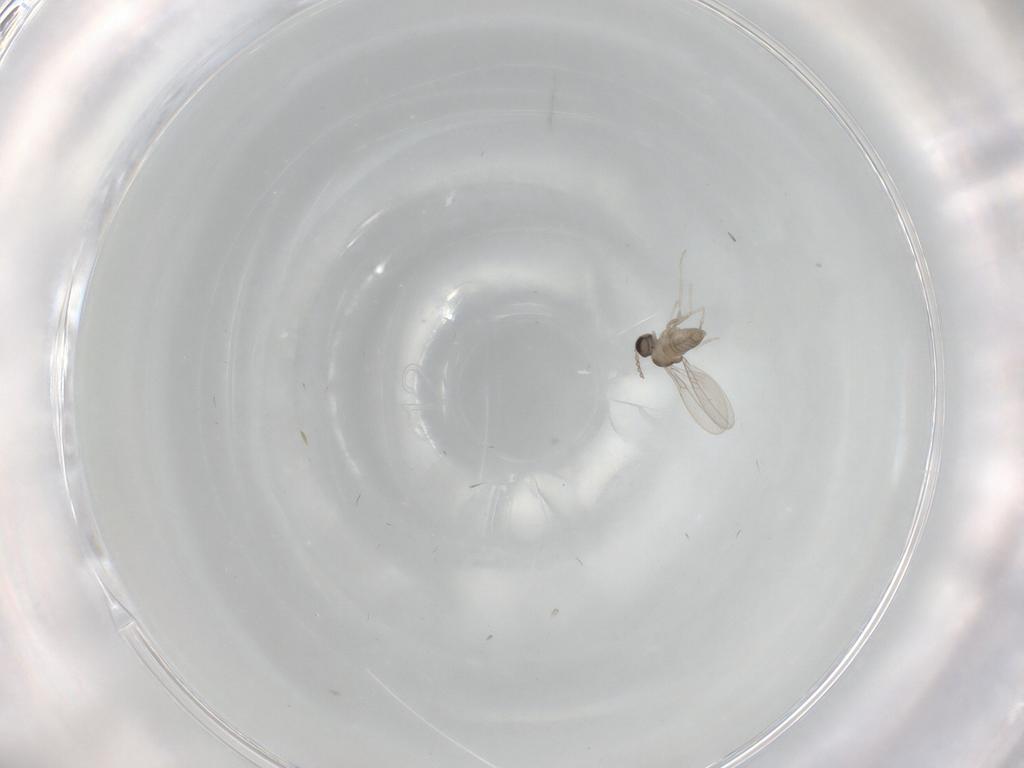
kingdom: Animalia
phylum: Arthropoda
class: Insecta
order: Diptera
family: Cecidomyiidae
